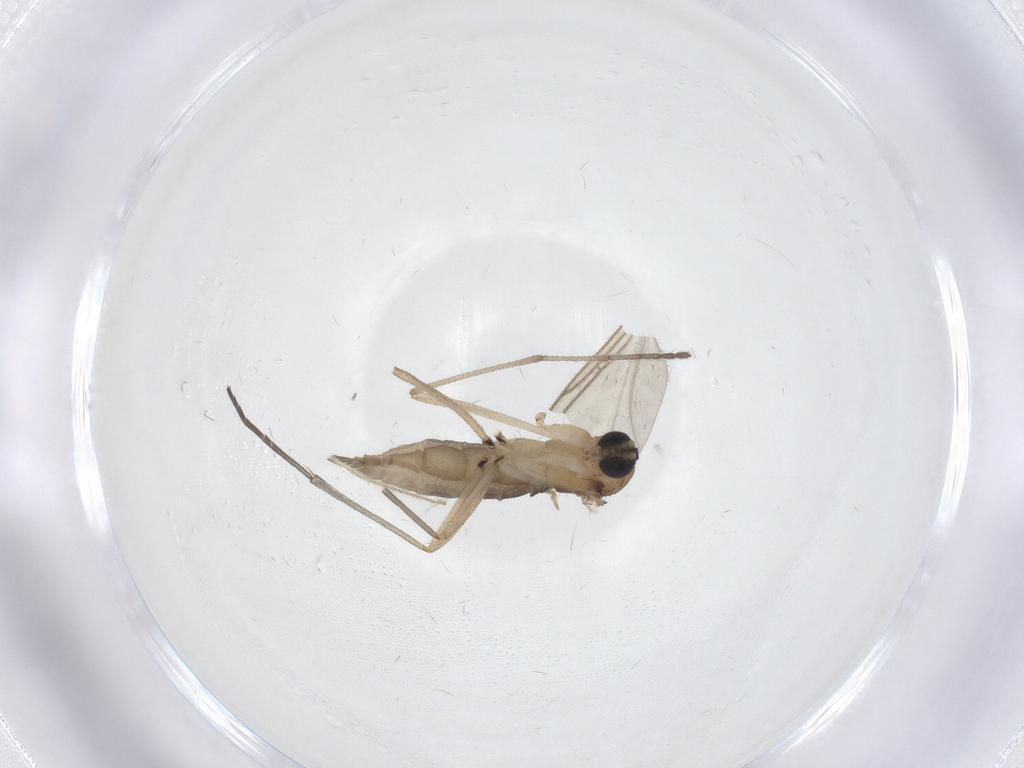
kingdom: Animalia
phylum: Arthropoda
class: Insecta
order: Diptera
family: Sciaridae
